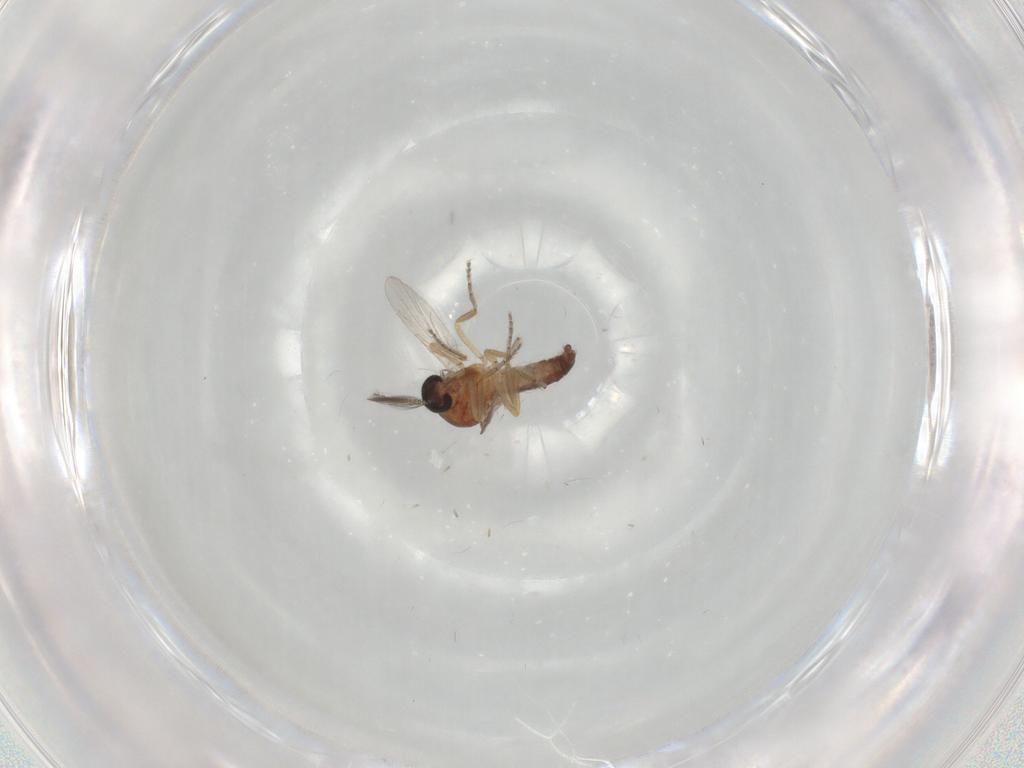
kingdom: Animalia
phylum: Arthropoda
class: Insecta
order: Diptera
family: Ceratopogonidae
